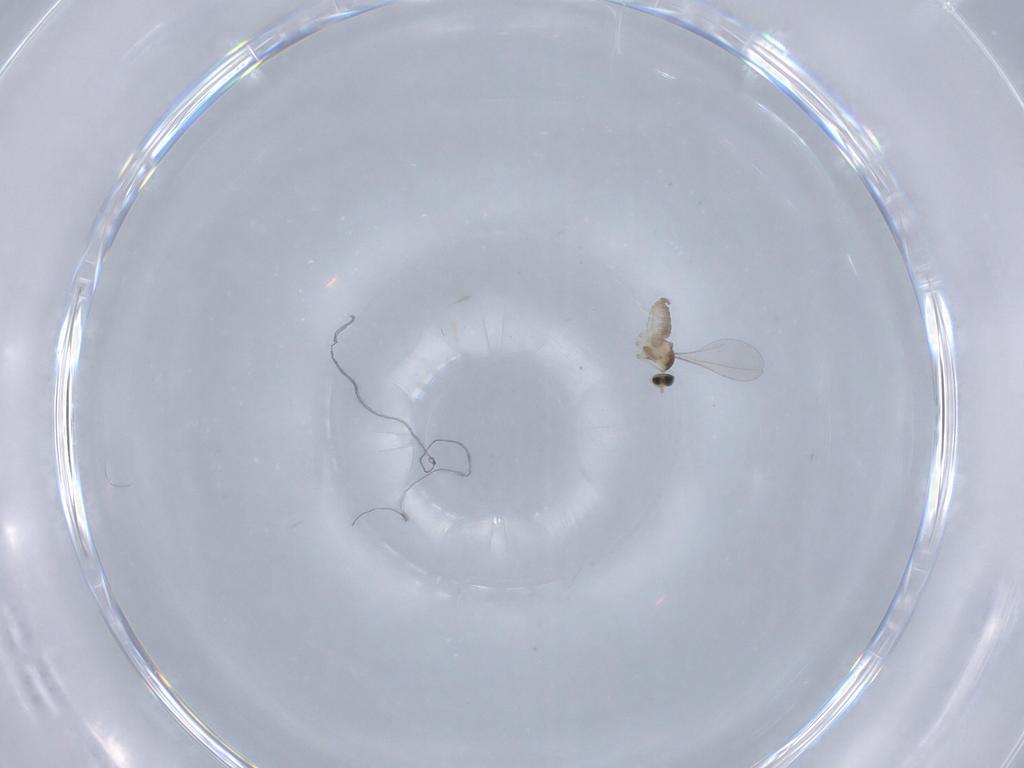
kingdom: Animalia
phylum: Arthropoda
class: Insecta
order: Diptera
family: Cecidomyiidae
